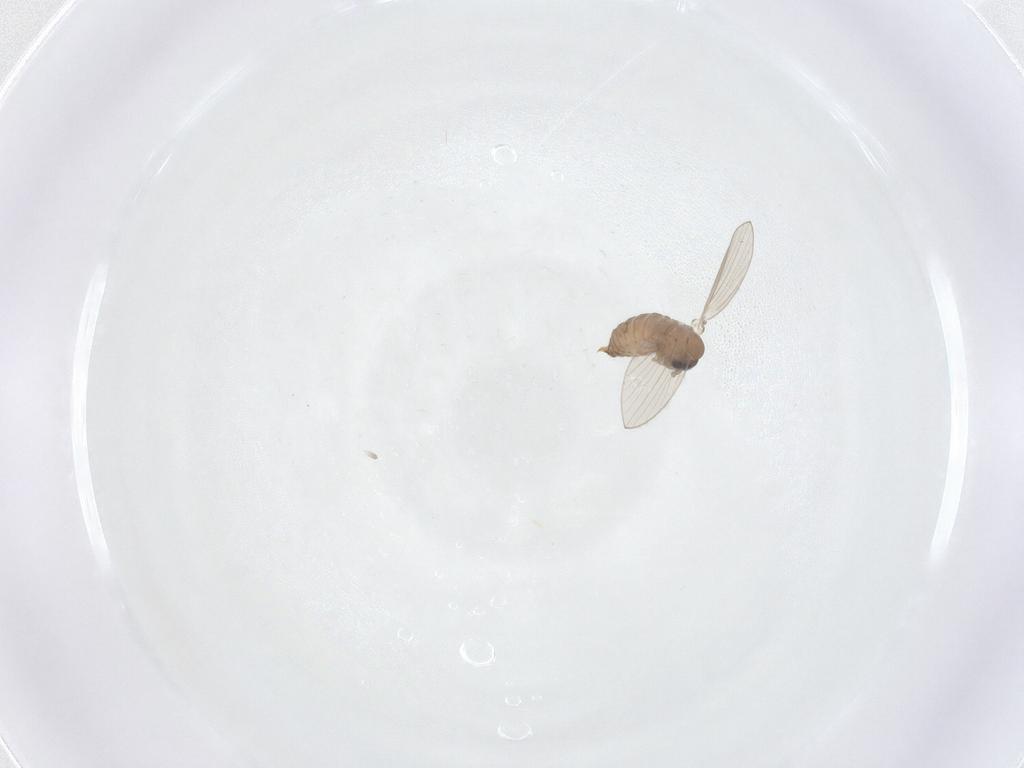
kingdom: Animalia
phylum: Arthropoda
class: Insecta
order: Diptera
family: Psychodidae
